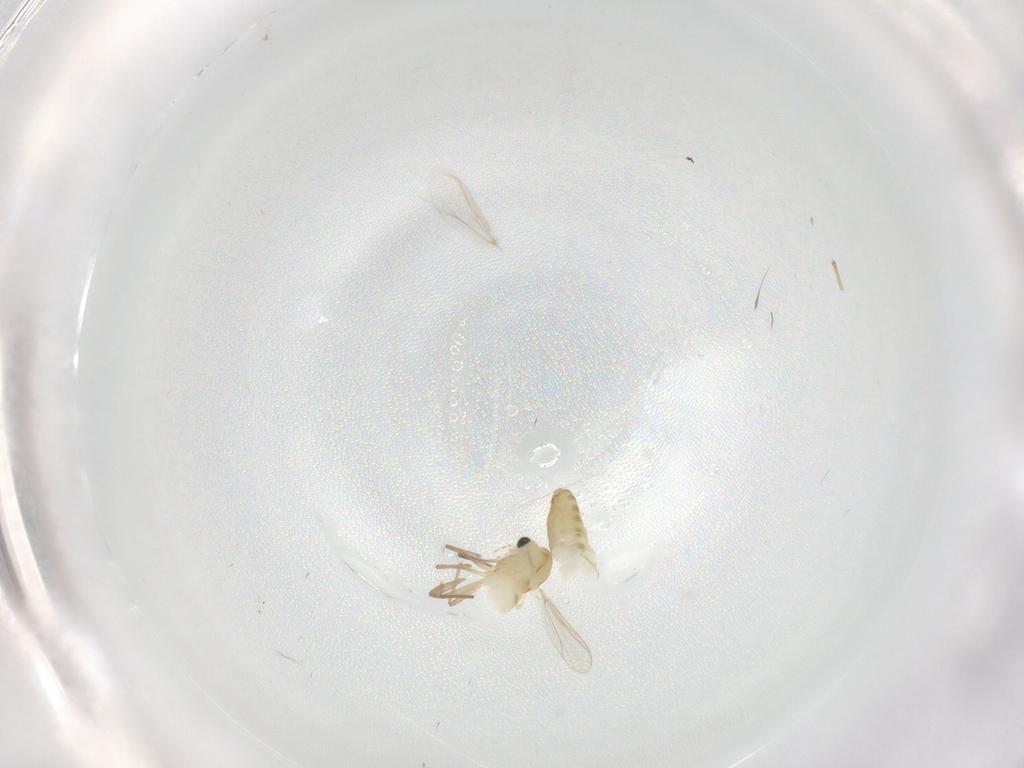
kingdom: Animalia
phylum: Arthropoda
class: Insecta
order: Diptera
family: Chironomidae
